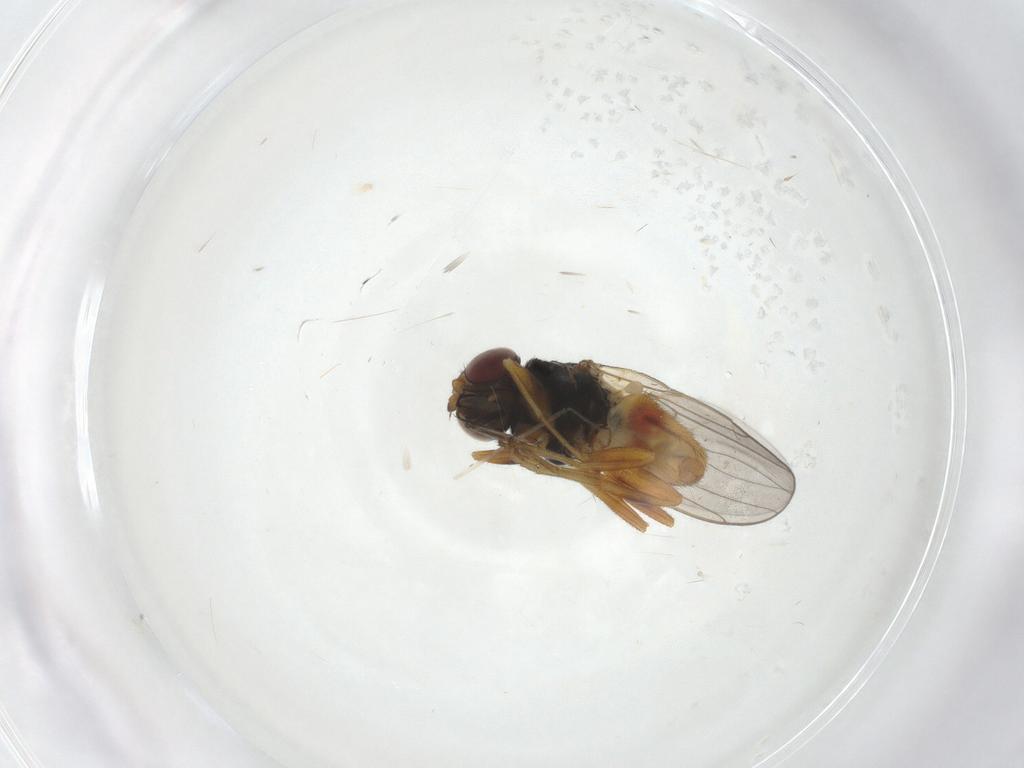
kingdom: Animalia
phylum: Arthropoda
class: Insecta
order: Diptera
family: Chloropidae
